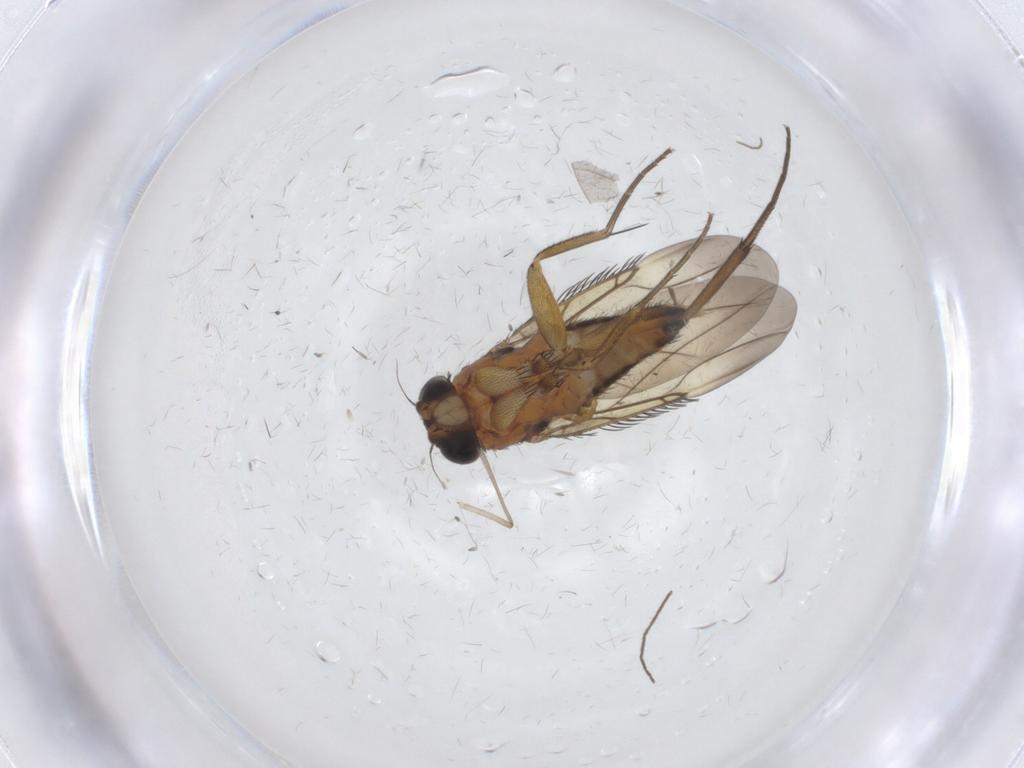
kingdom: Animalia
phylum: Arthropoda
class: Insecta
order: Diptera
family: Phoridae
